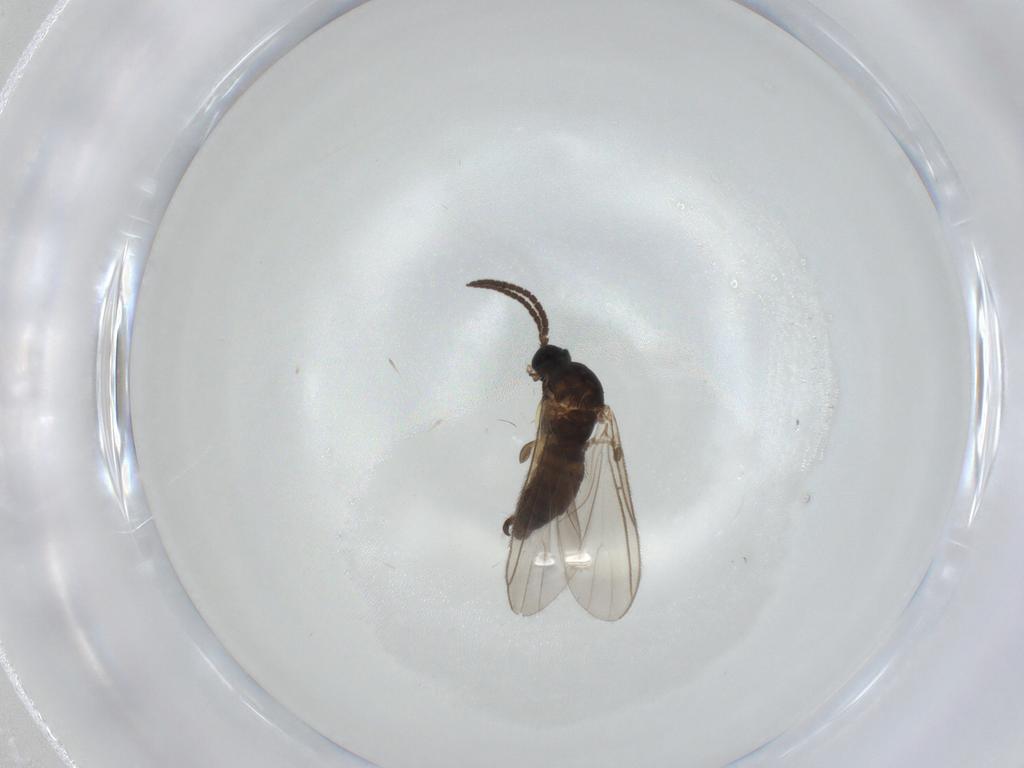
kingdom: Animalia
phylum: Arthropoda
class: Insecta
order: Diptera
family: Sciaridae
